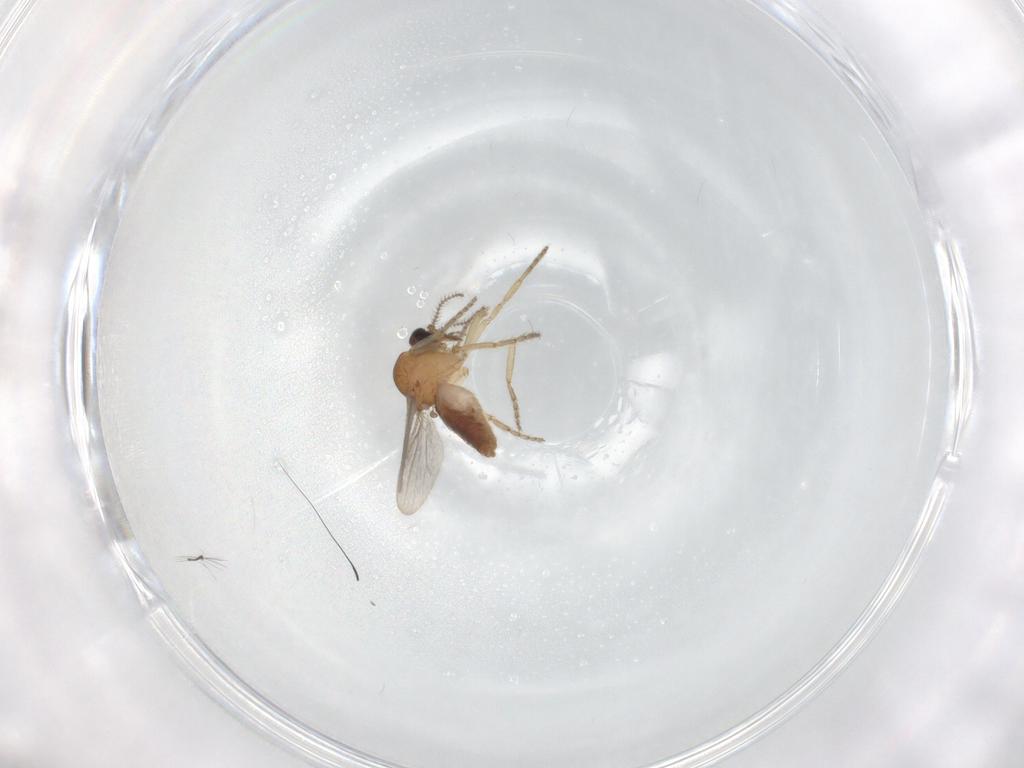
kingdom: Animalia
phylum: Arthropoda
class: Insecta
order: Diptera
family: Ceratopogonidae
